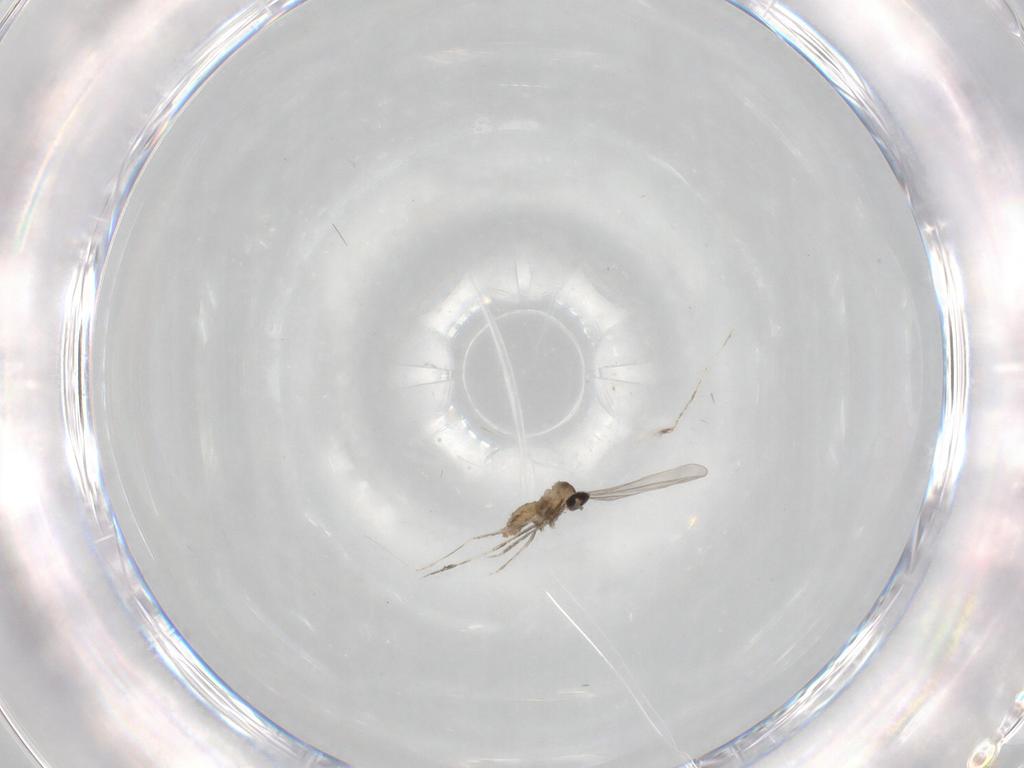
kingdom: Animalia
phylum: Arthropoda
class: Insecta
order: Diptera
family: Cecidomyiidae
